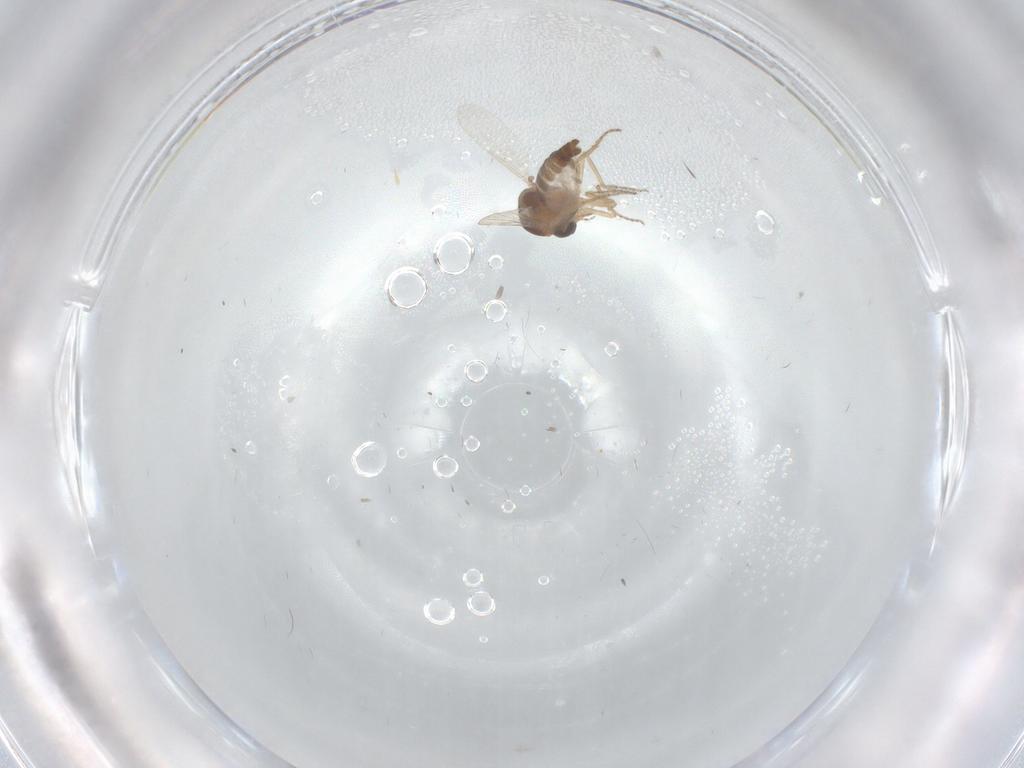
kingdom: Animalia
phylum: Arthropoda
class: Insecta
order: Diptera
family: Ceratopogonidae
